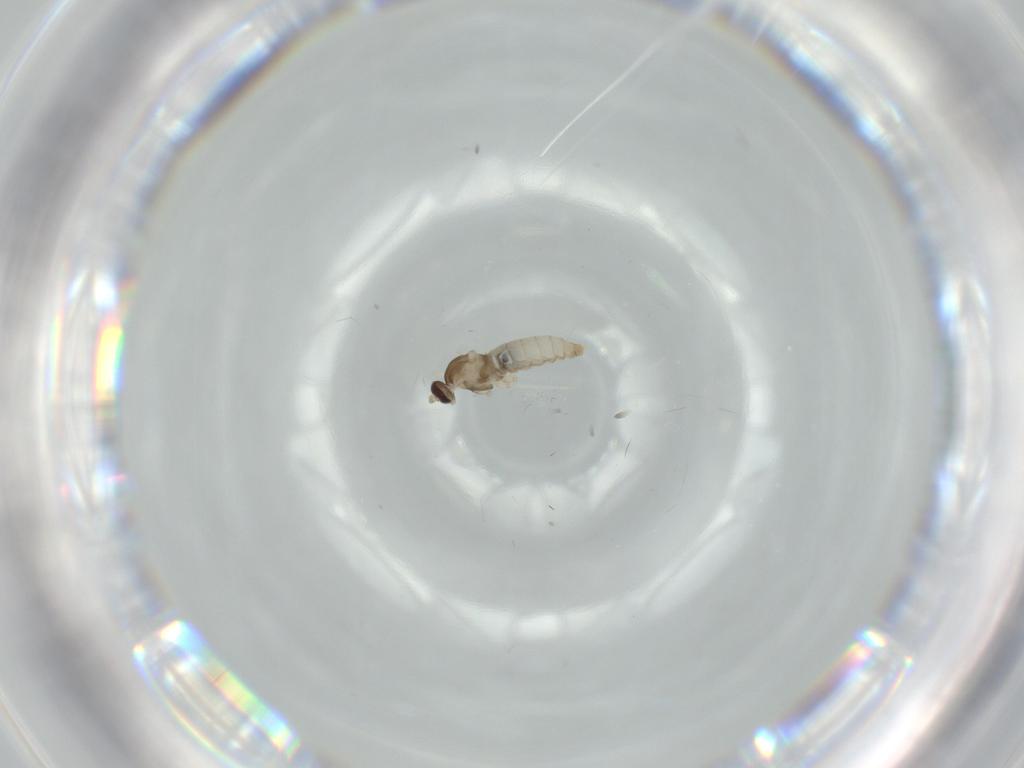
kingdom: Animalia
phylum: Arthropoda
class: Insecta
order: Diptera
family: Cecidomyiidae
